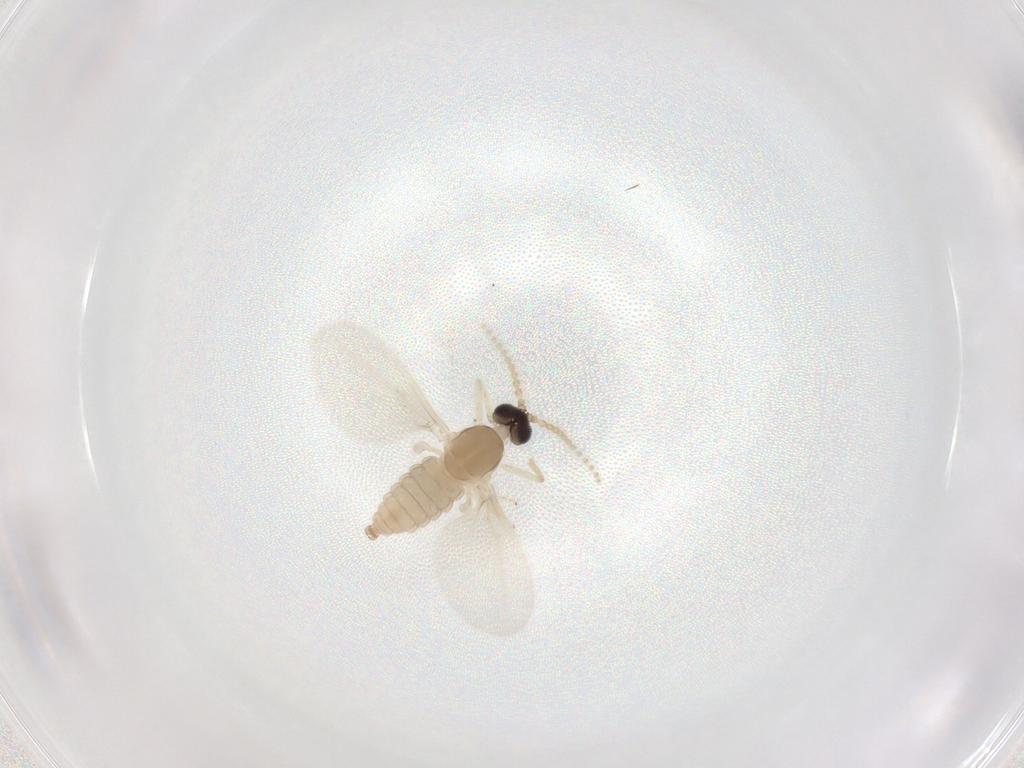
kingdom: Animalia
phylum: Arthropoda
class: Insecta
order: Diptera
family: Cecidomyiidae
